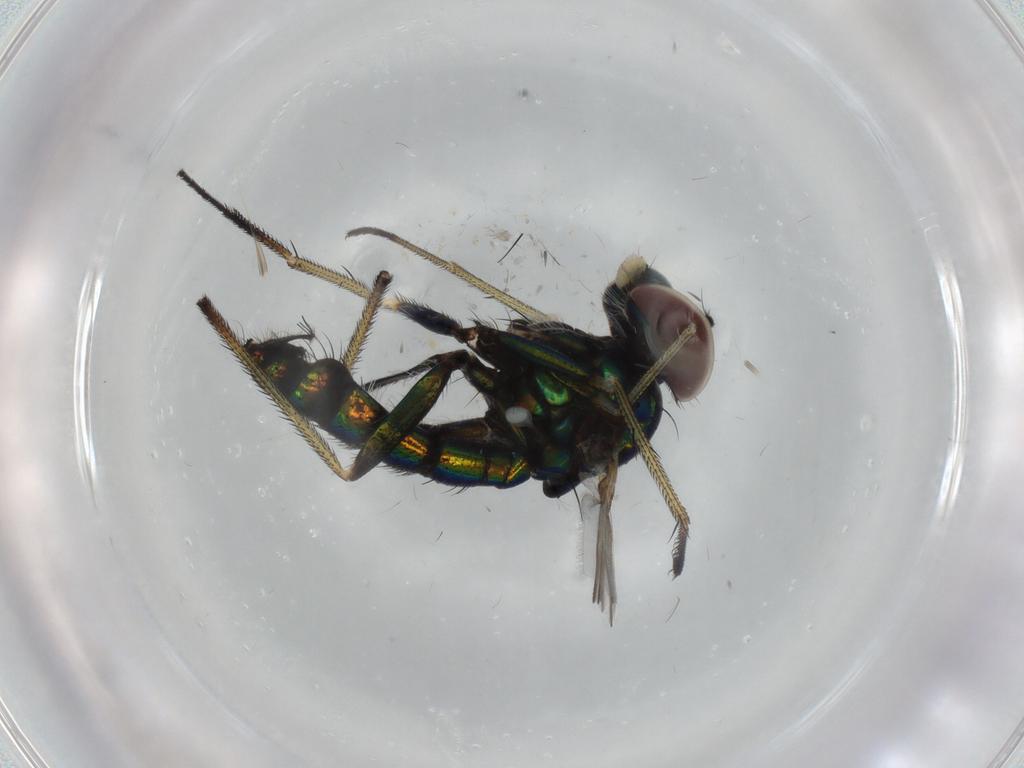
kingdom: Animalia
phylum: Arthropoda
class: Insecta
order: Diptera
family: Dolichopodidae
